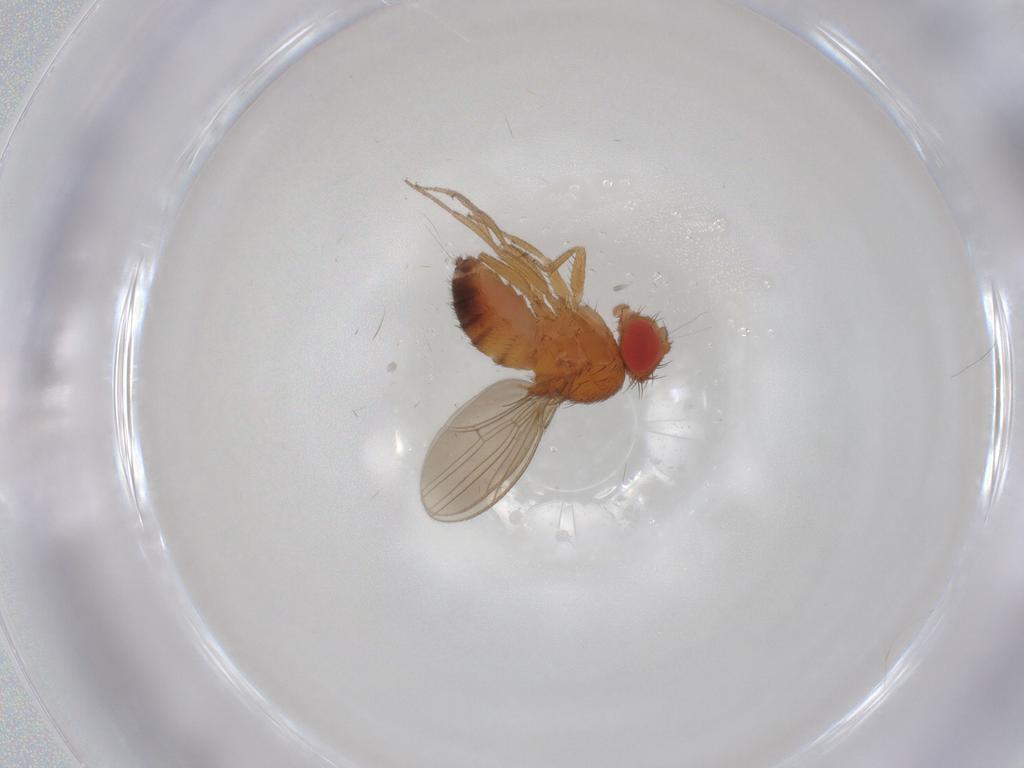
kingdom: Animalia
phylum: Arthropoda
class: Insecta
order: Diptera
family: Drosophilidae
